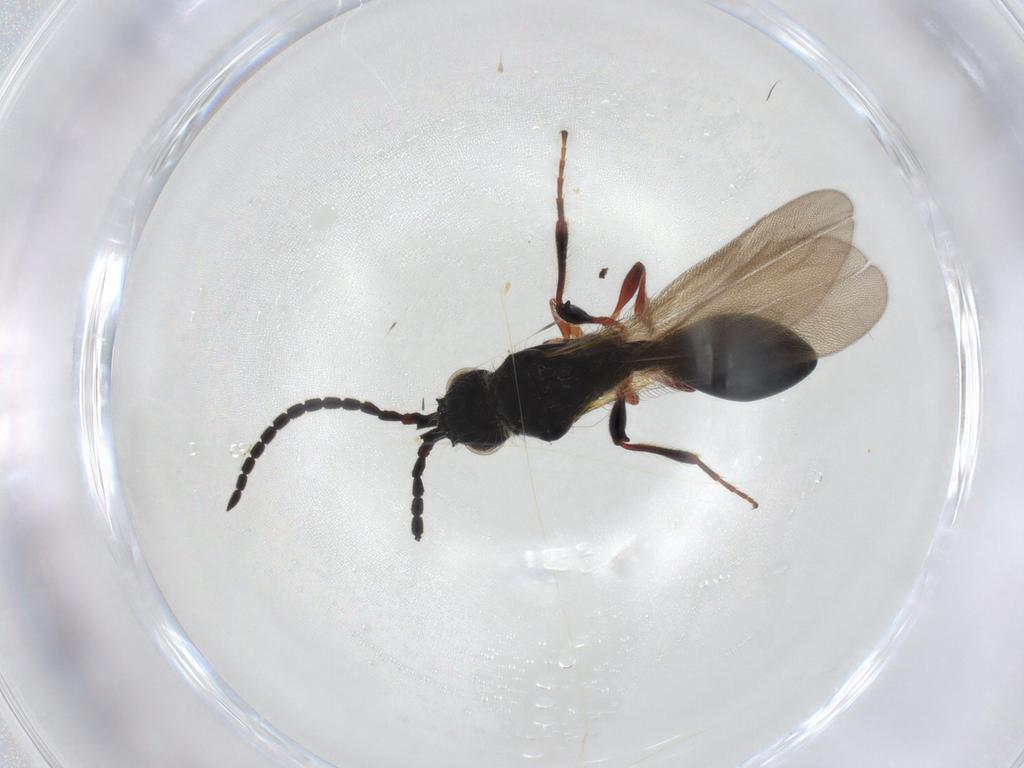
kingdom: Animalia
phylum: Arthropoda
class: Insecta
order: Hymenoptera
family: Diapriidae
